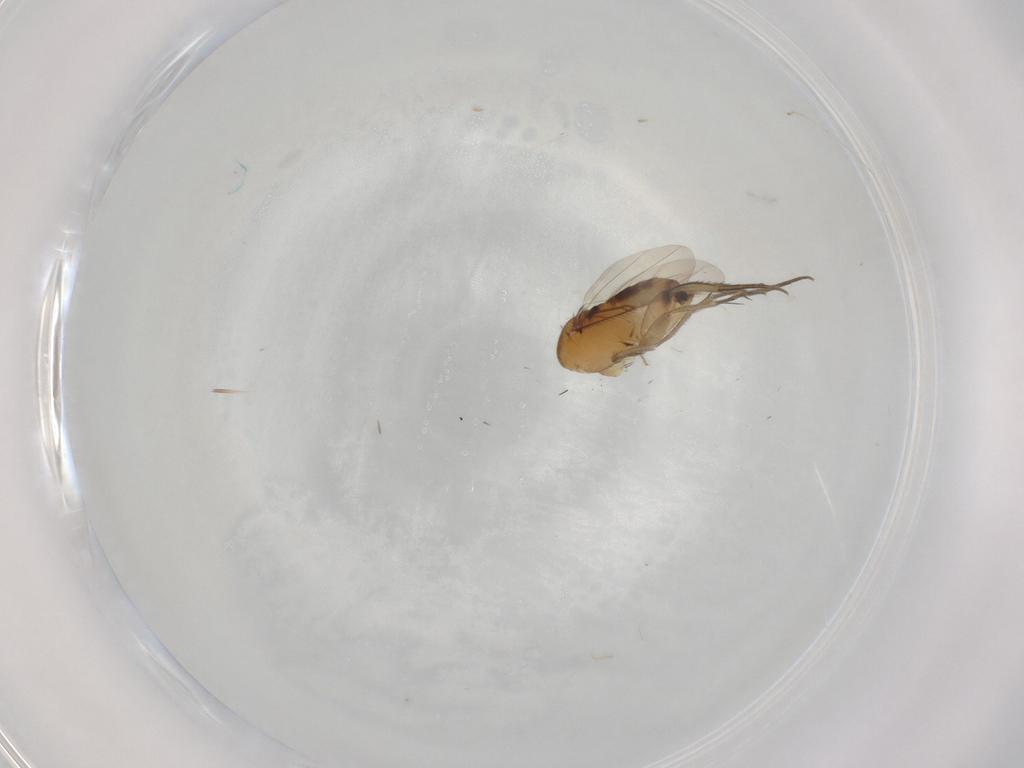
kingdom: Animalia
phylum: Arthropoda
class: Insecta
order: Diptera
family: Phoridae
